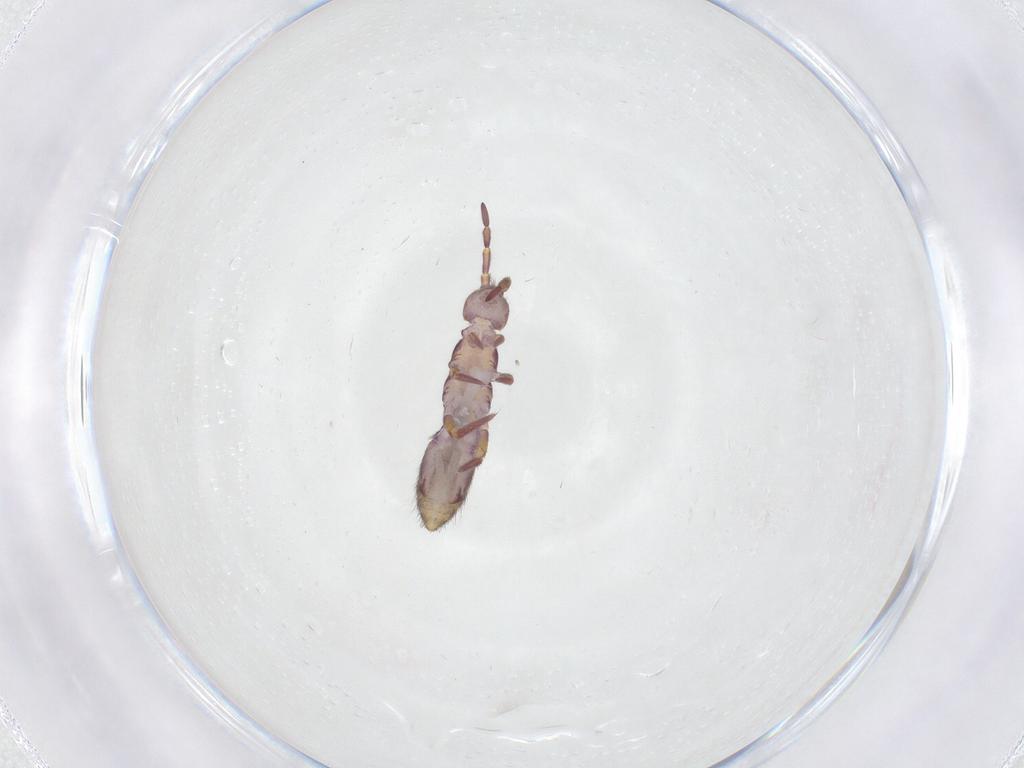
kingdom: Animalia
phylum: Arthropoda
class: Collembola
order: Entomobryomorpha
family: Isotomidae
